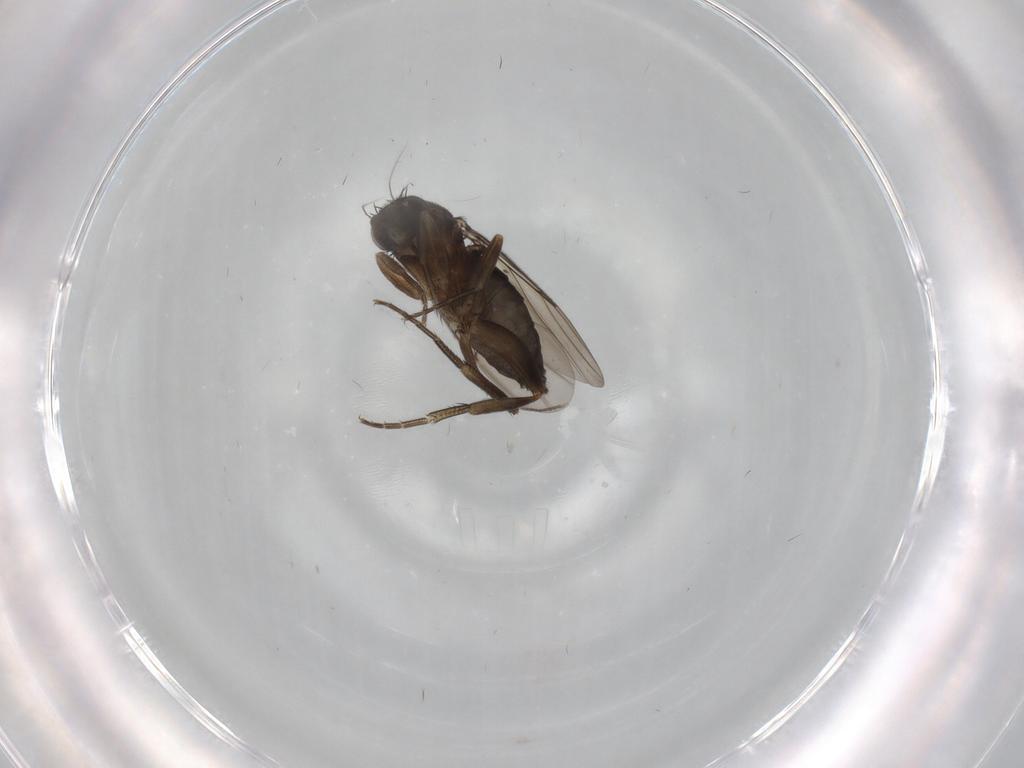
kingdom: Animalia
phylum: Arthropoda
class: Insecta
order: Diptera
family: Phoridae
